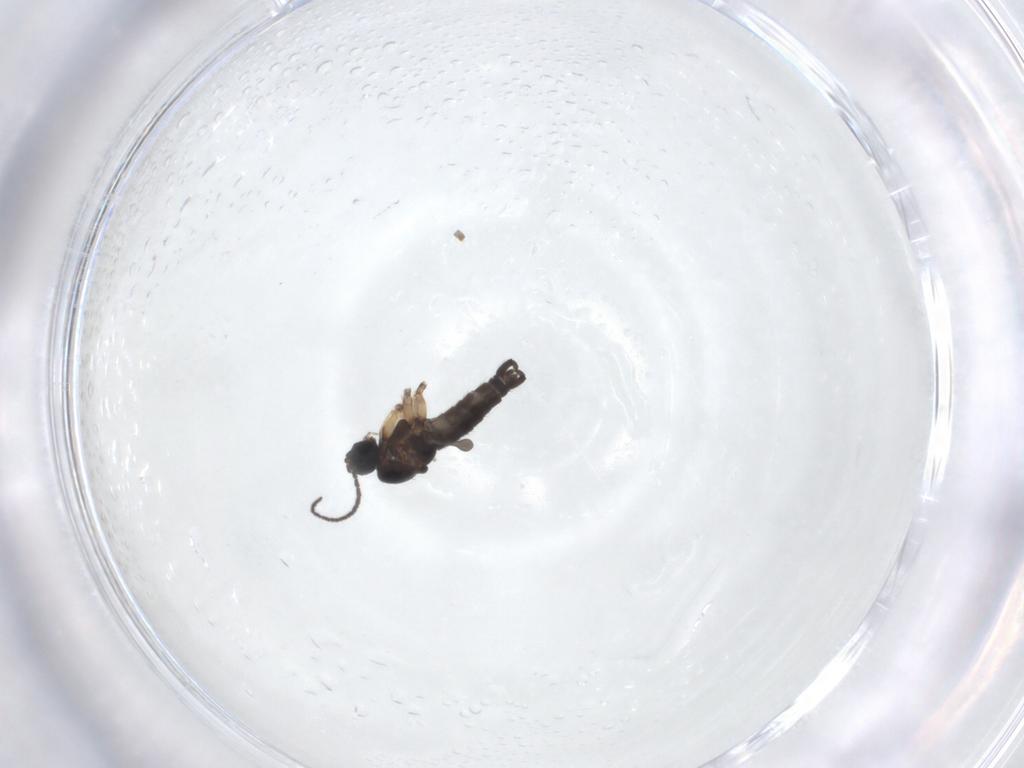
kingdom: Animalia
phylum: Arthropoda
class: Insecta
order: Diptera
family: Sciaridae
